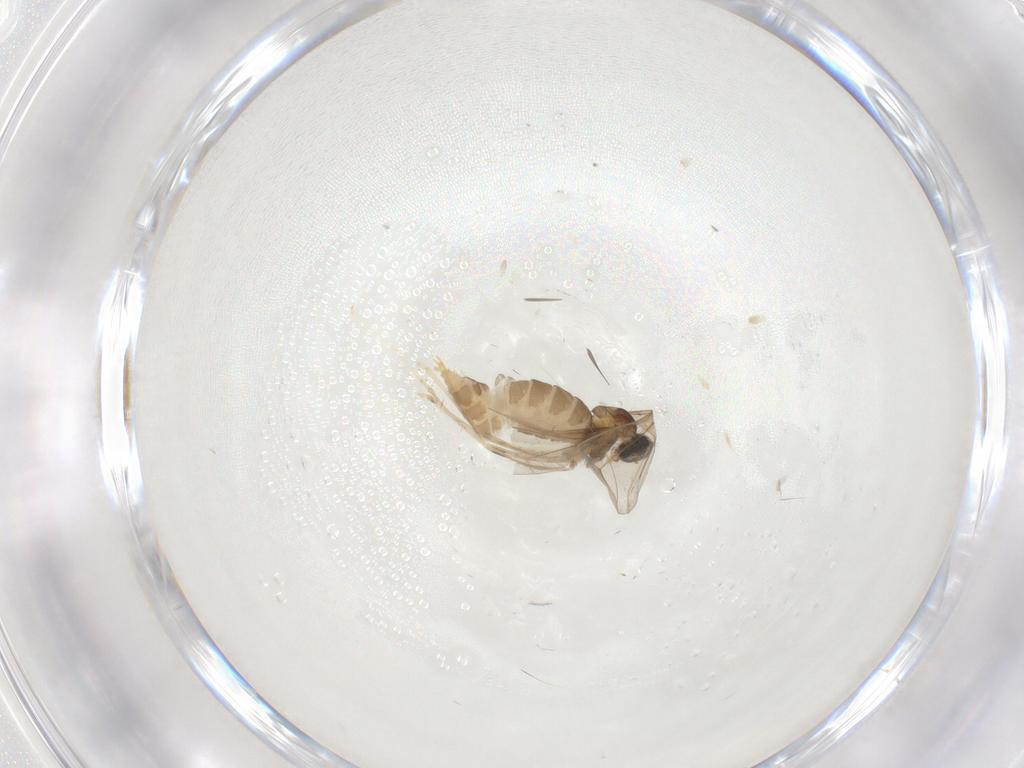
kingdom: Animalia
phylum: Arthropoda
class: Insecta
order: Diptera
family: Cecidomyiidae
